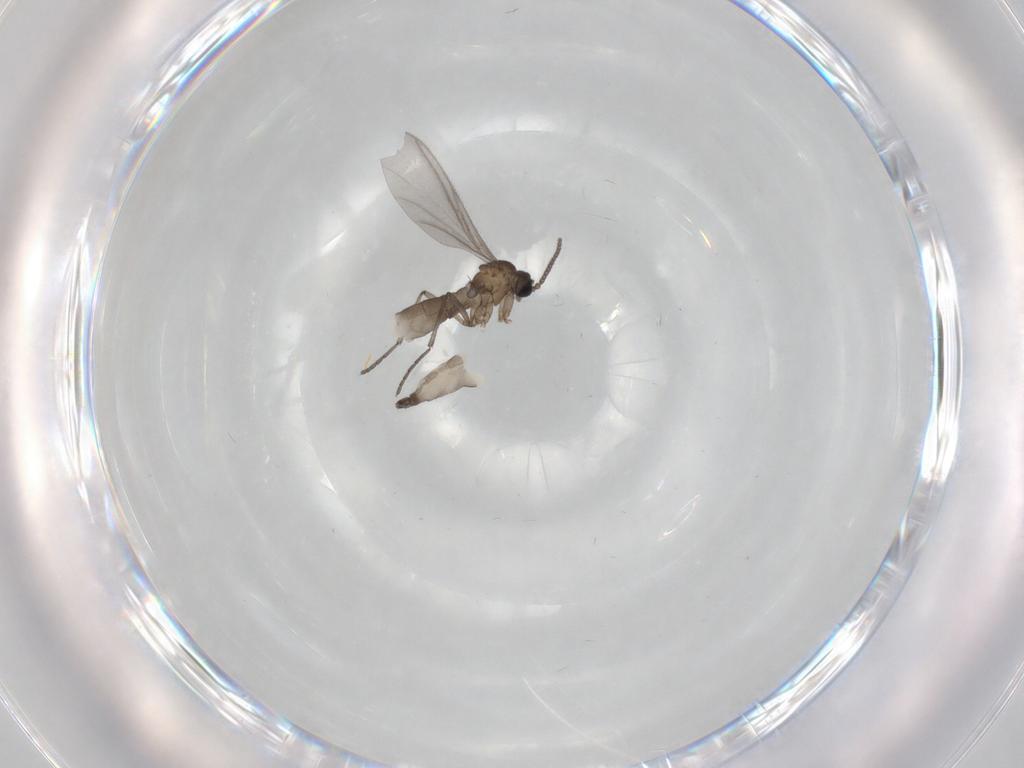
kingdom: Animalia
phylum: Arthropoda
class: Insecta
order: Diptera
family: Sciaridae
